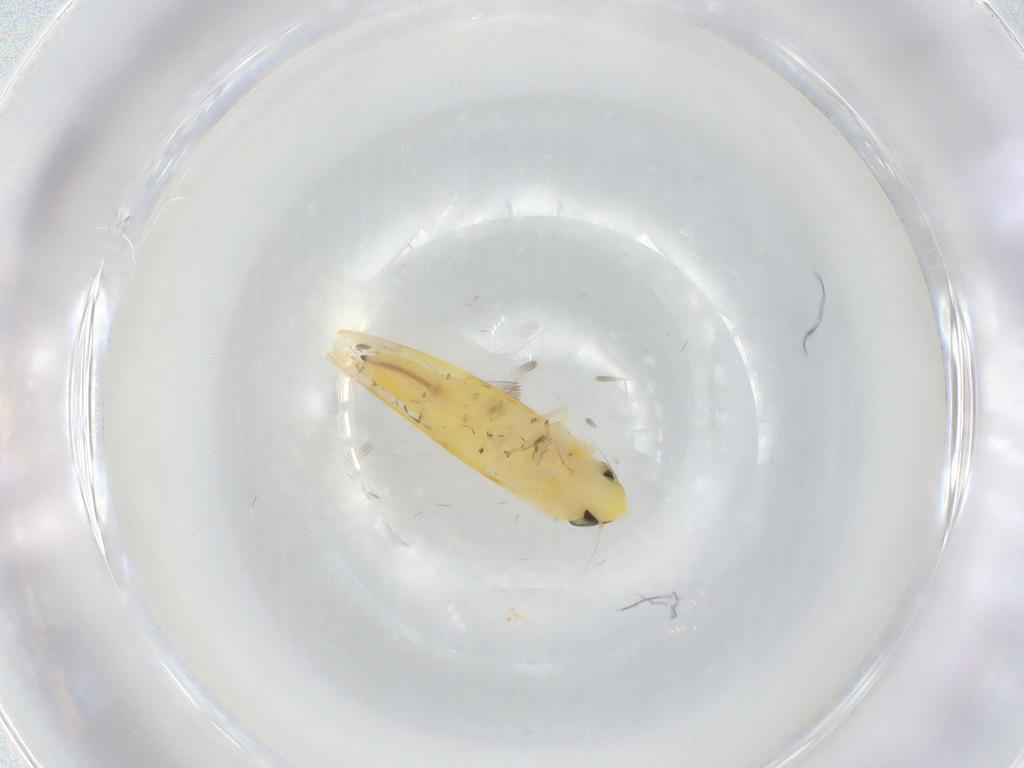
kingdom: Animalia
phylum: Arthropoda
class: Insecta
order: Hemiptera
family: Cicadellidae
